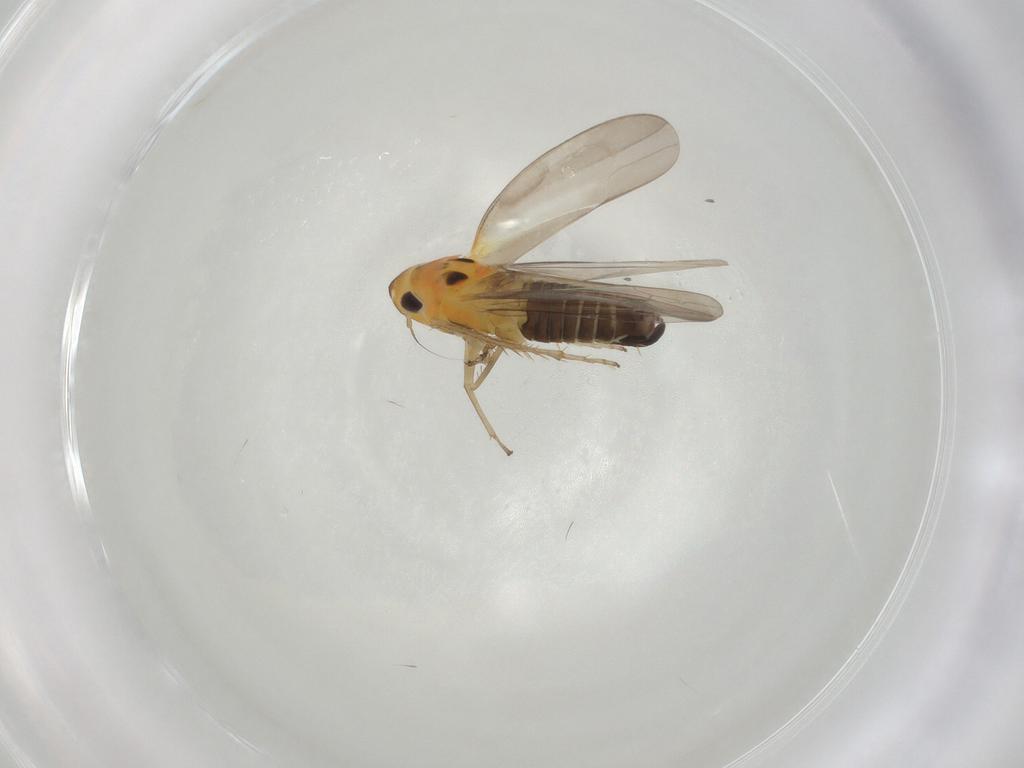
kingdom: Animalia
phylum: Arthropoda
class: Insecta
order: Hemiptera
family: Cicadellidae
